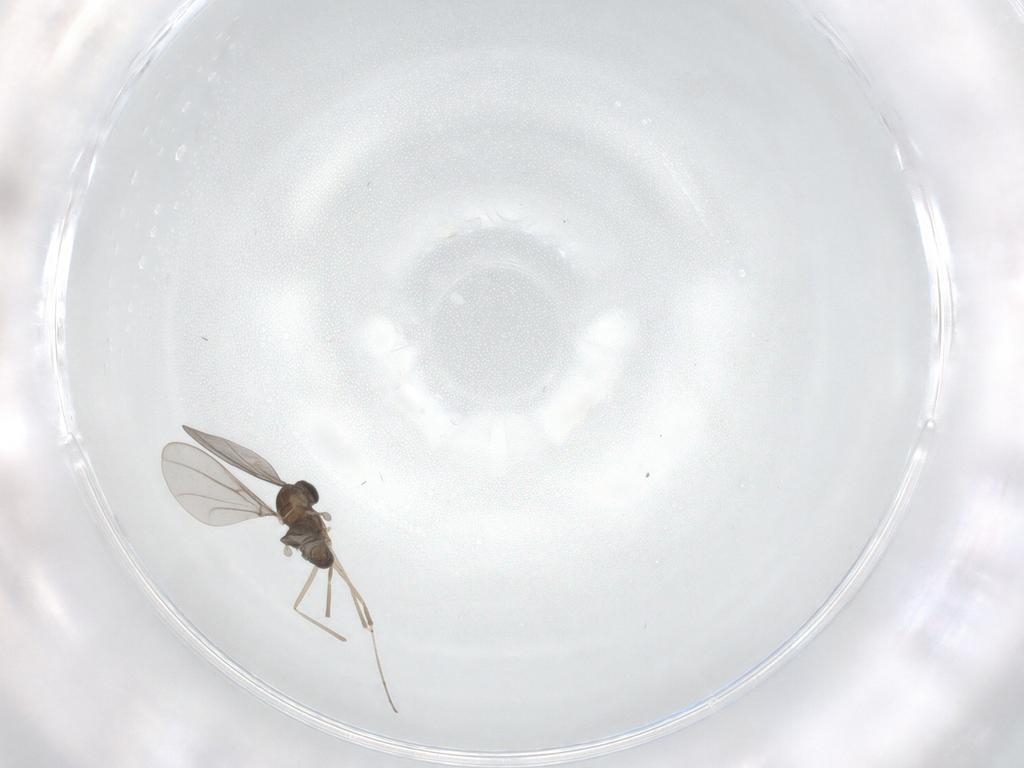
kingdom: Animalia
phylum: Arthropoda
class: Insecta
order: Diptera
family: Cecidomyiidae
